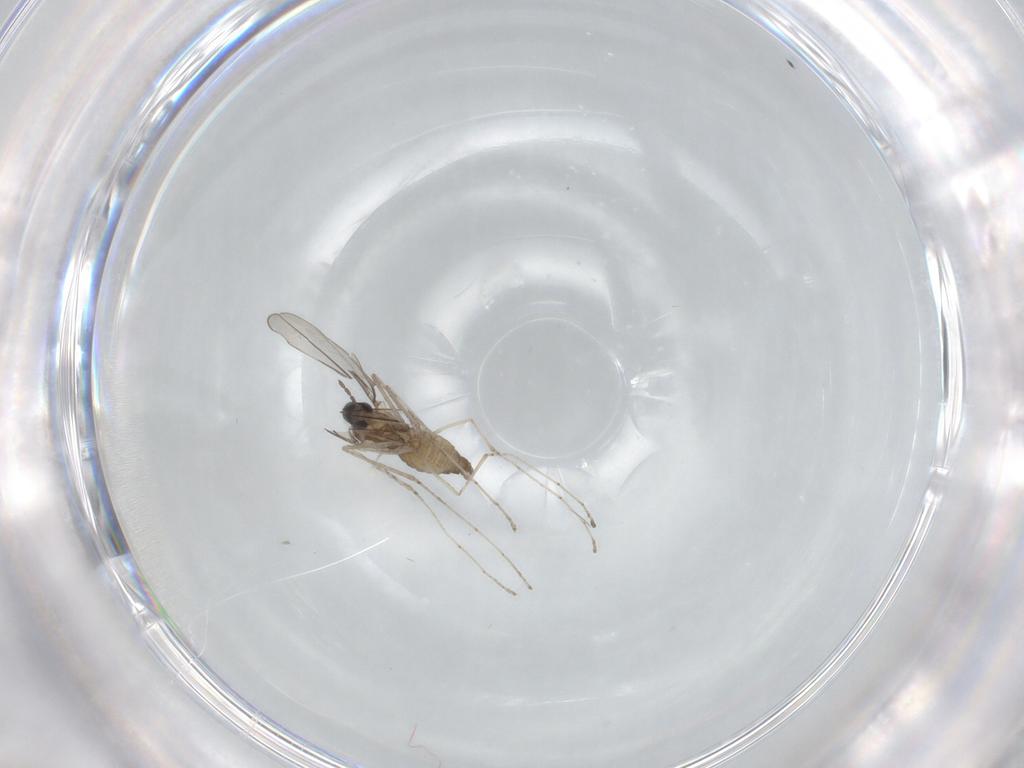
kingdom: Animalia
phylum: Arthropoda
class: Insecta
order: Diptera
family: Cecidomyiidae
